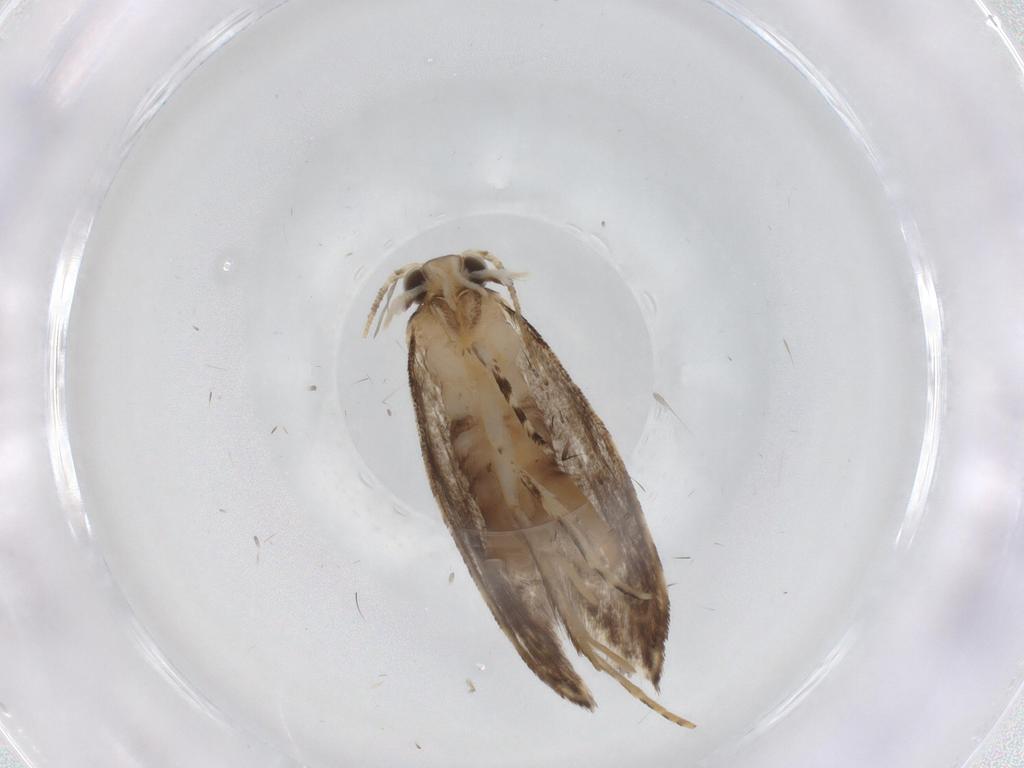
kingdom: Animalia
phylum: Arthropoda
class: Insecta
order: Lepidoptera
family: Tineidae
